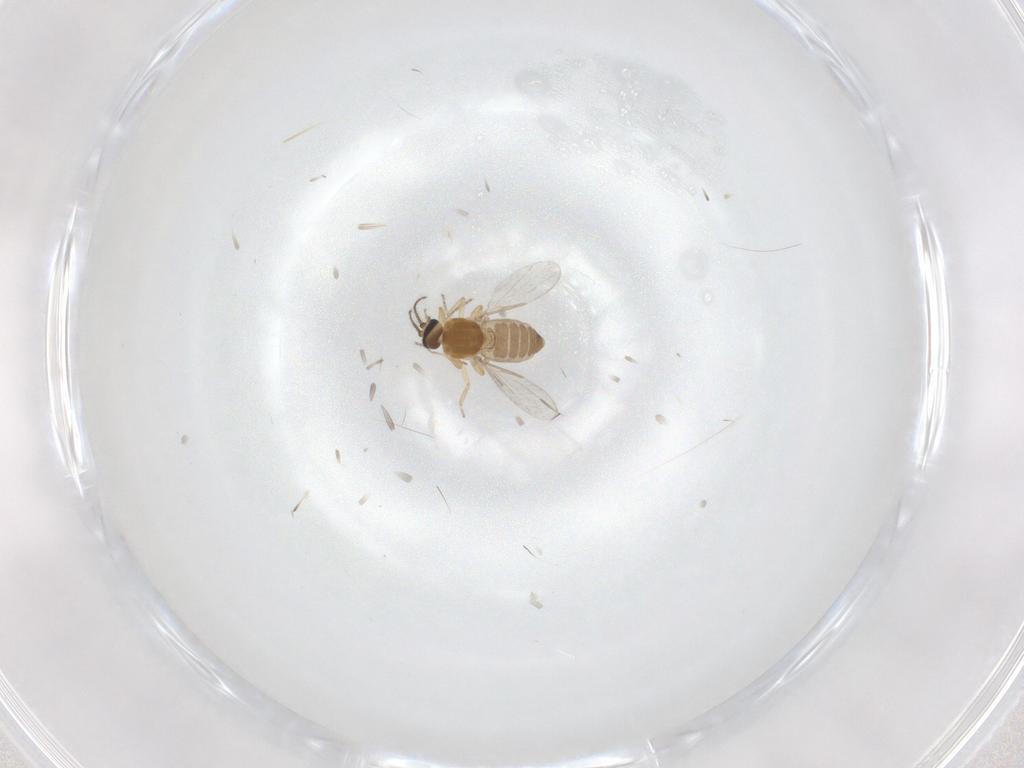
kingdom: Animalia
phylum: Arthropoda
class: Insecta
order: Diptera
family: Ceratopogonidae
